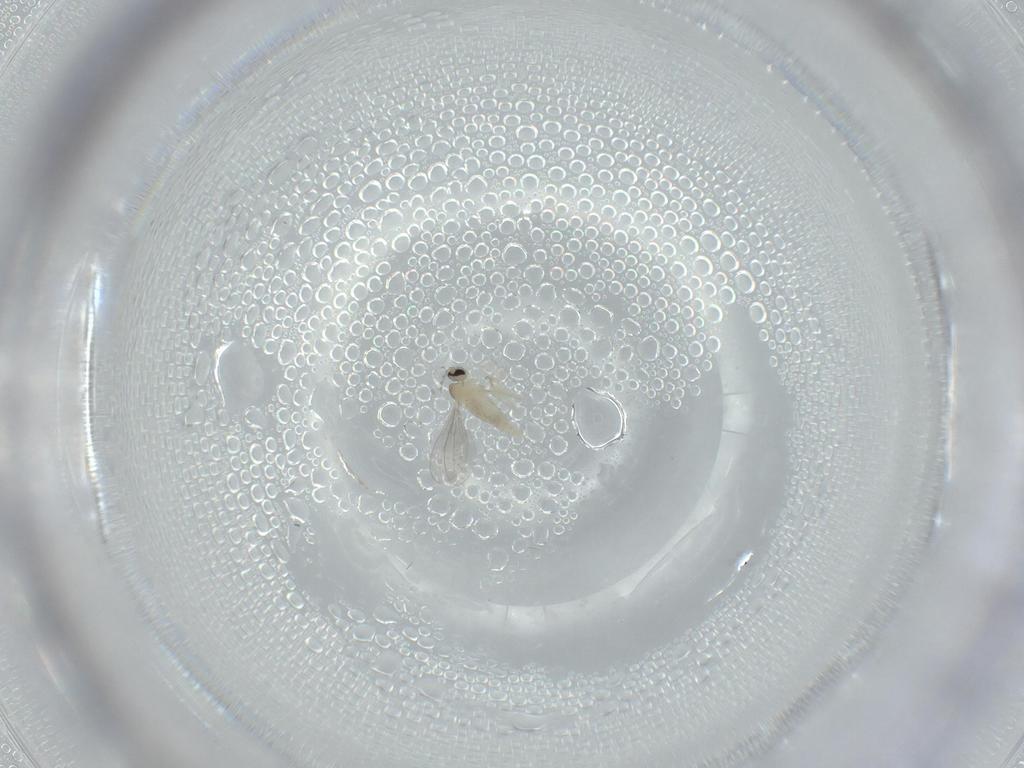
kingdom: Animalia
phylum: Arthropoda
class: Insecta
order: Diptera
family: Cecidomyiidae
